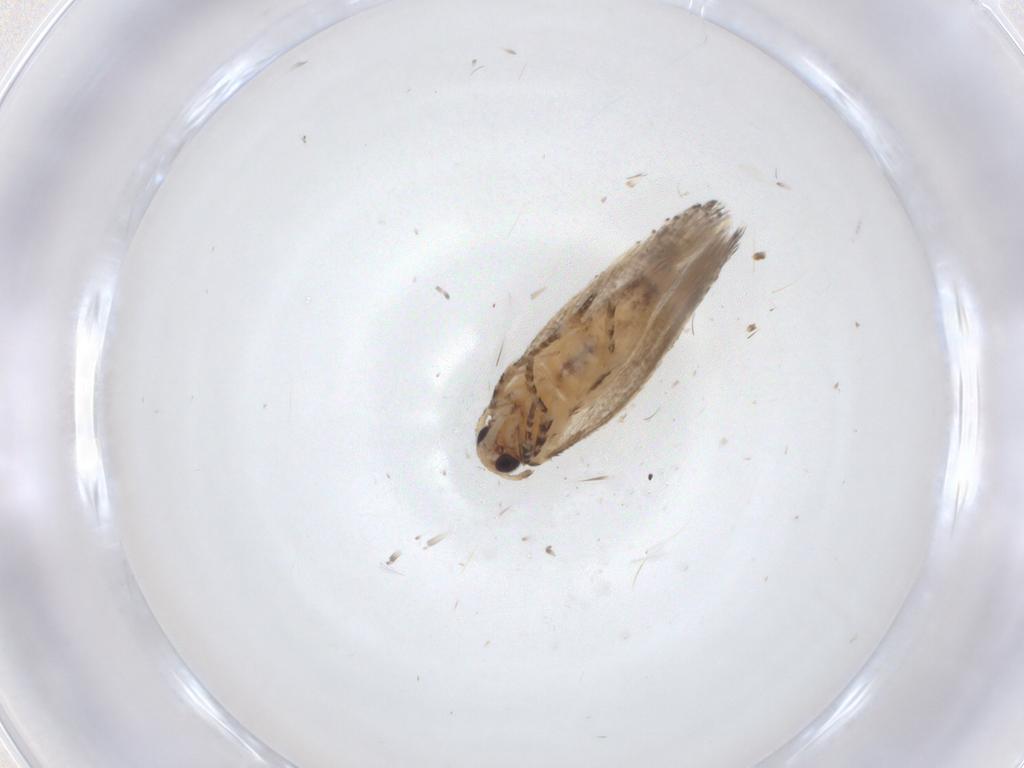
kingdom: Animalia
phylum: Arthropoda
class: Insecta
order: Lepidoptera
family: Gelechiidae
